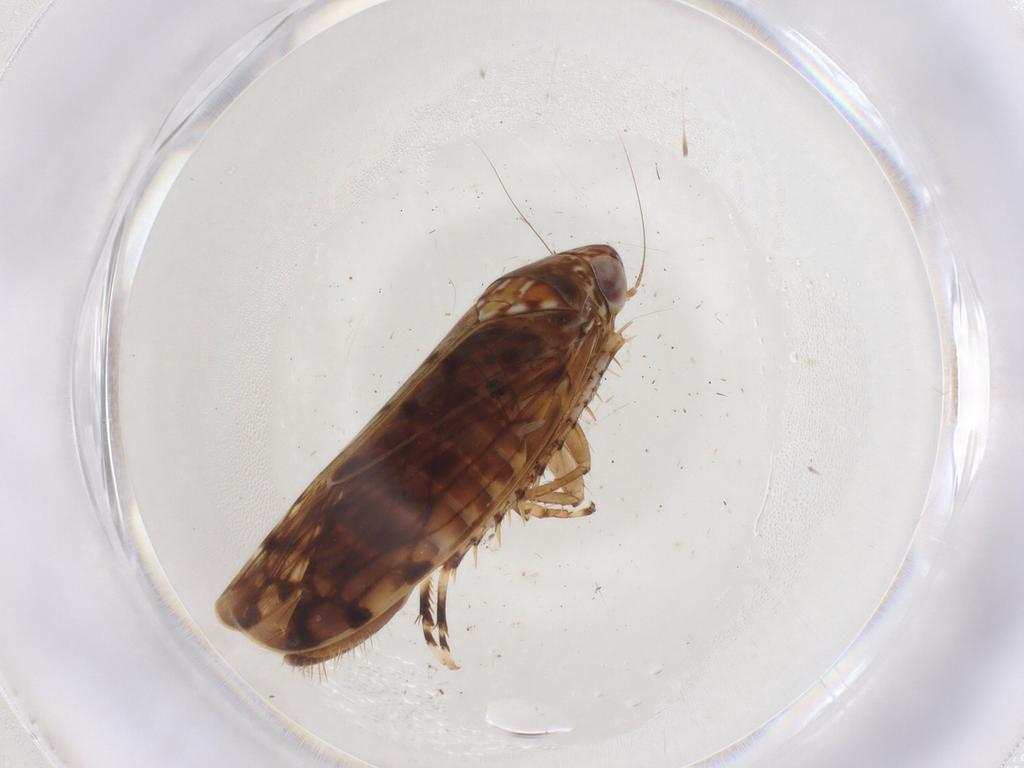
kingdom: Animalia
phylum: Arthropoda
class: Insecta
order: Hemiptera
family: Cicadellidae
